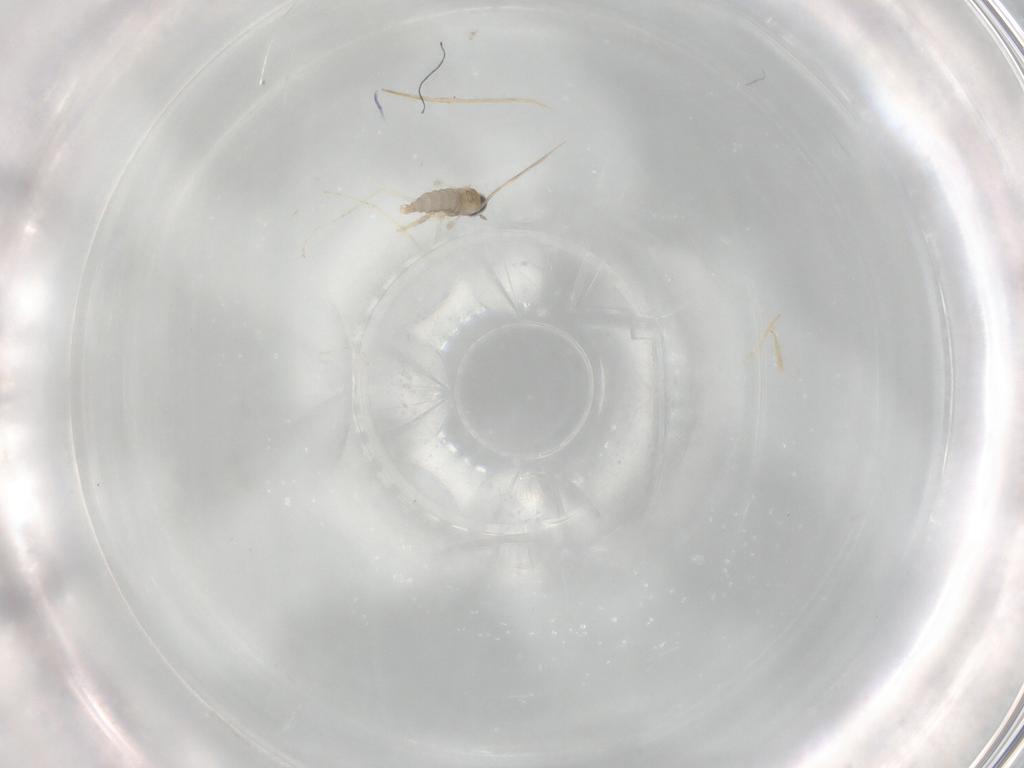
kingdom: Animalia
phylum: Arthropoda
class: Insecta
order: Diptera
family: Cecidomyiidae
